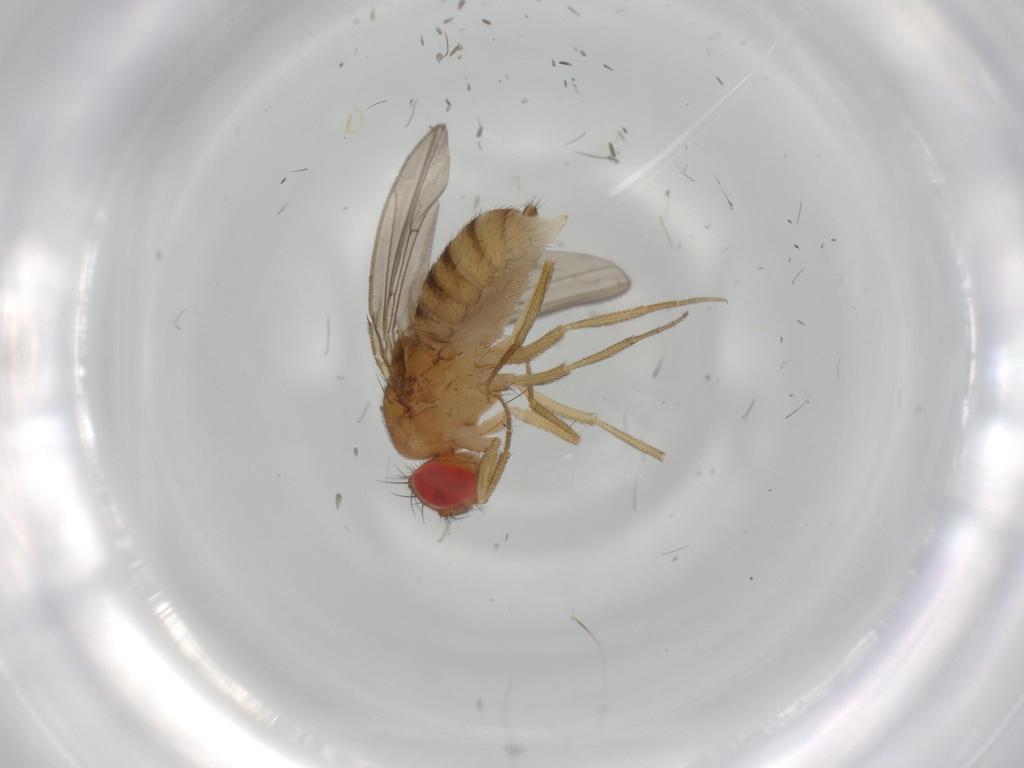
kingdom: Animalia
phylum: Arthropoda
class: Insecta
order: Diptera
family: Drosophilidae
